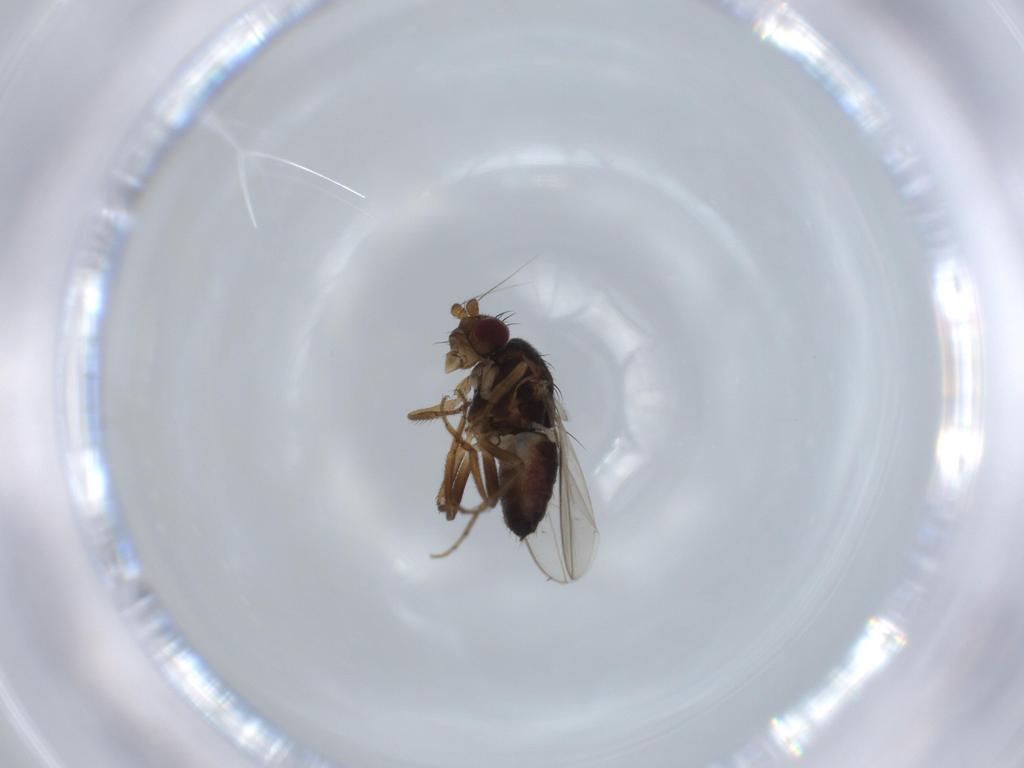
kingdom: Animalia
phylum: Arthropoda
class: Insecta
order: Diptera
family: Drosophilidae
